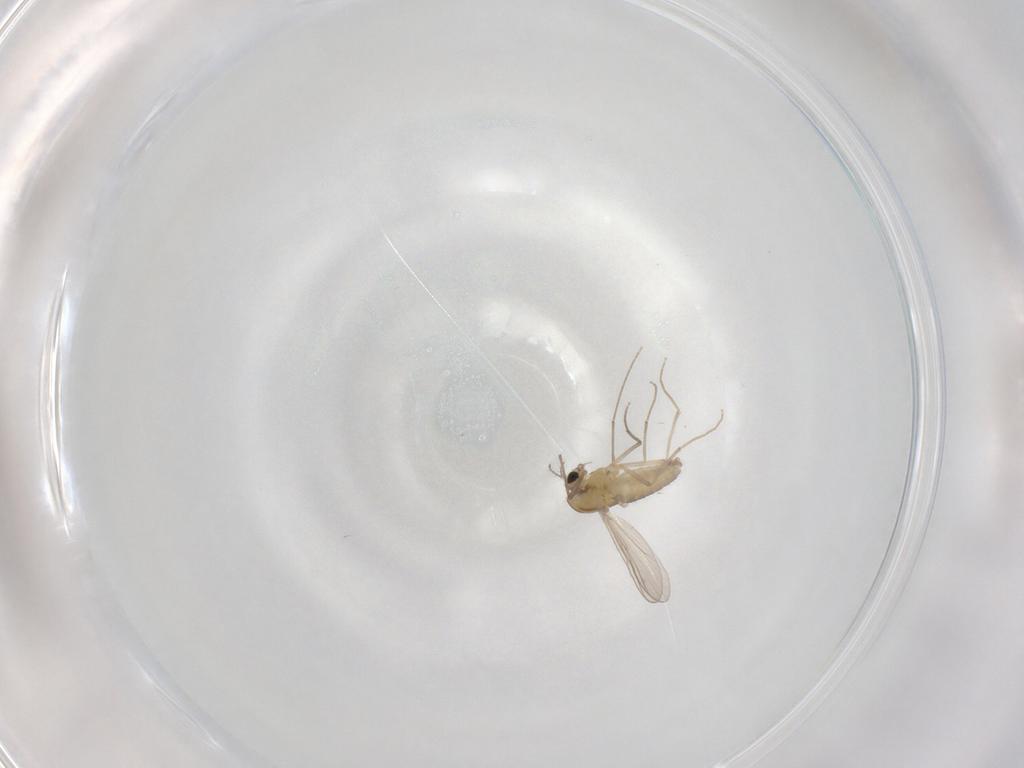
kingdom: Animalia
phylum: Arthropoda
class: Insecta
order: Diptera
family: Chironomidae
